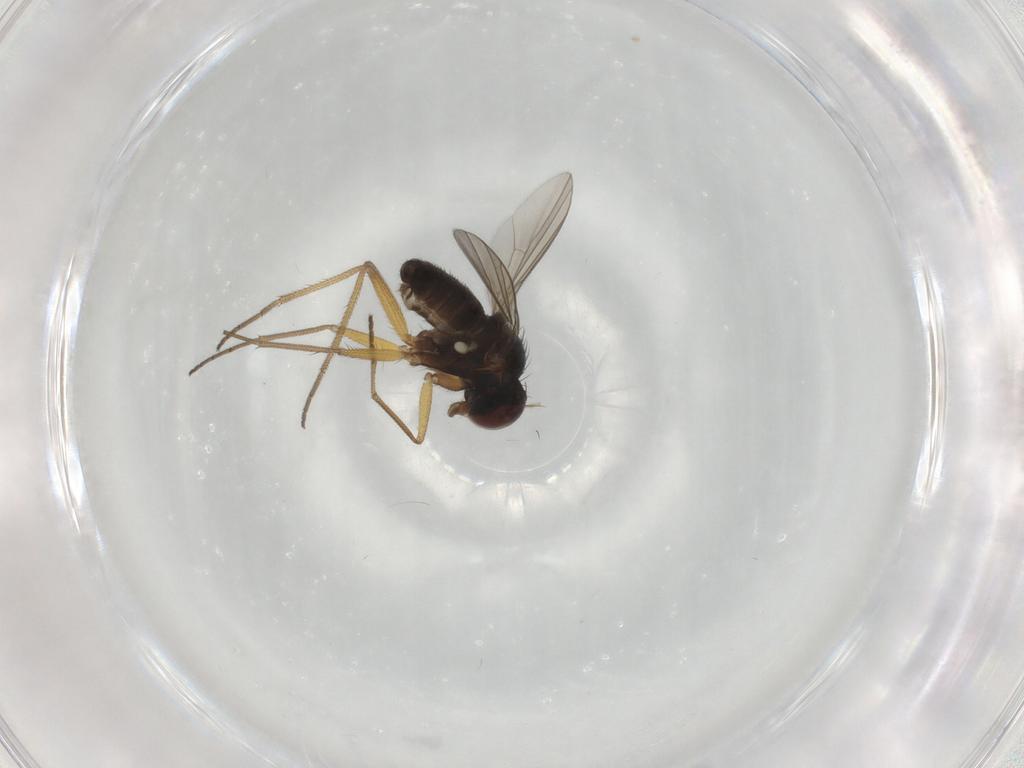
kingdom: Animalia
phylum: Arthropoda
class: Insecta
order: Diptera
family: Dolichopodidae
